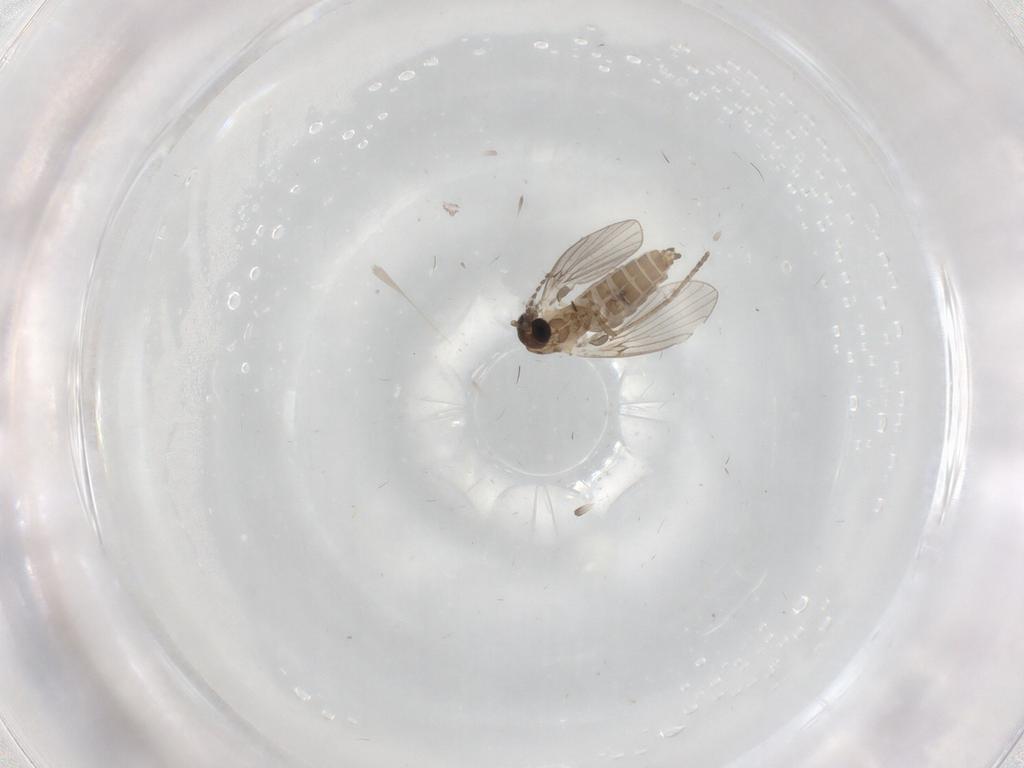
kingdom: Animalia
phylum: Arthropoda
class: Insecta
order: Diptera
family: Psychodidae
